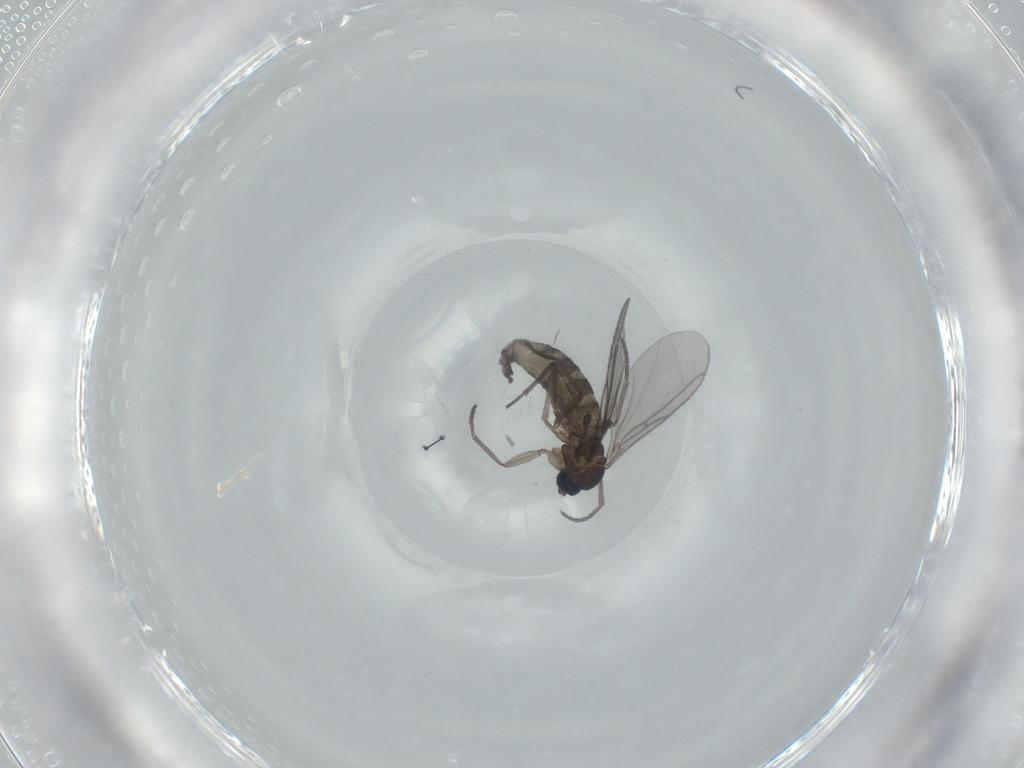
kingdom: Animalia
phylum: Arthropoda
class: Insecta
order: Diptera
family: Sciaridae
